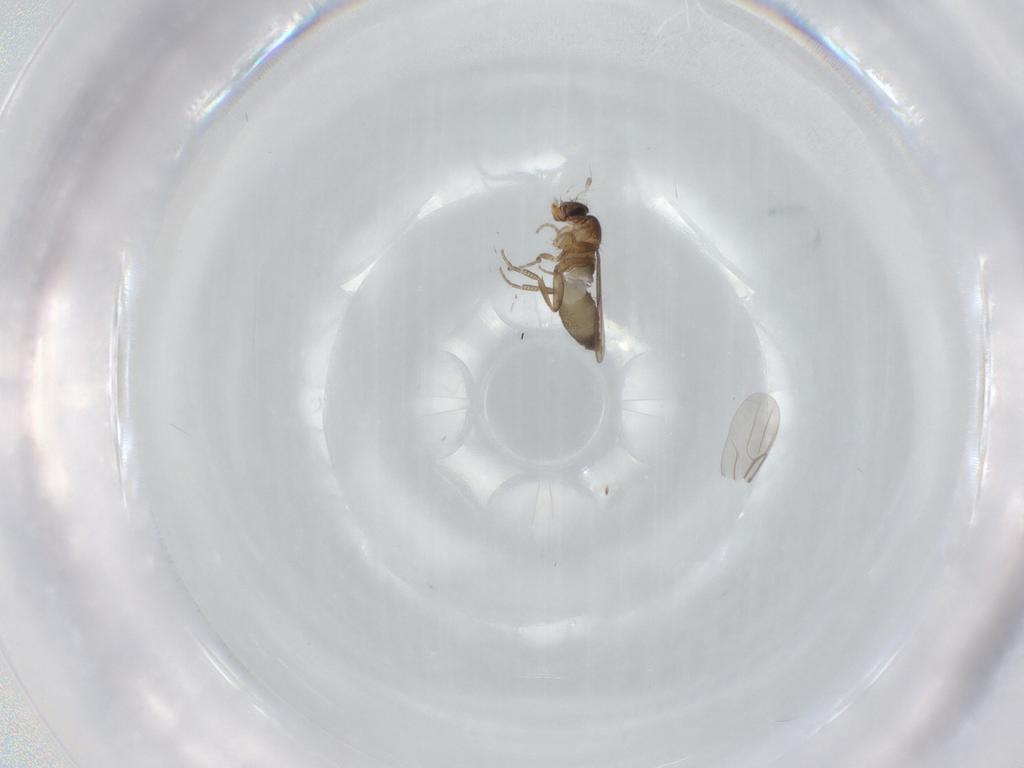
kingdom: Animalia
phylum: Arthropoda
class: Insecta
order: Diptera
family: Phoridae
